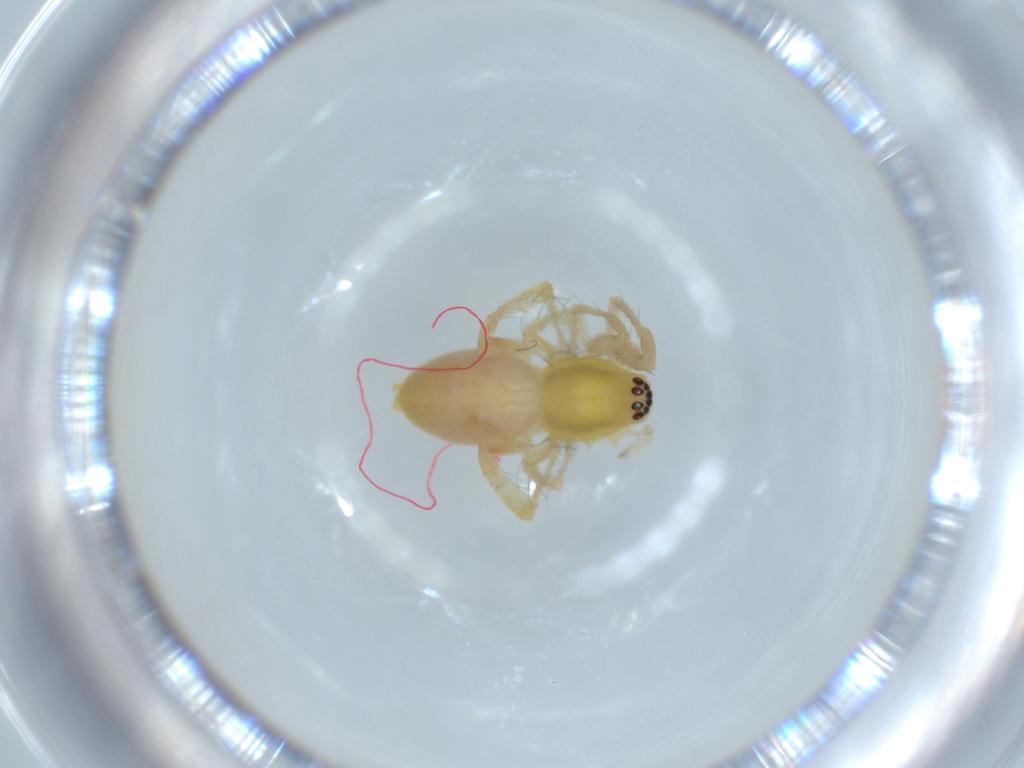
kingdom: Animalia
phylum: Arthropoda
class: Arachnida
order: Araneae
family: Anyphaenidae
